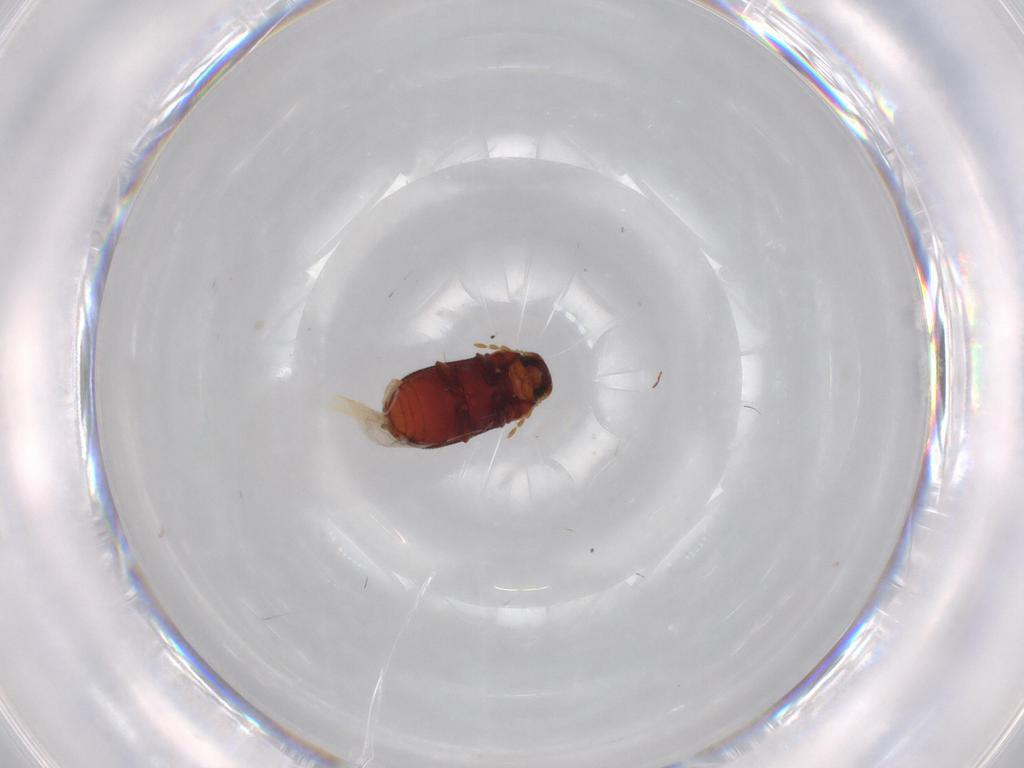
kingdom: Animalia
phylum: Arthropoda
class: Insecta
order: Coleoptera
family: Ptinidae
